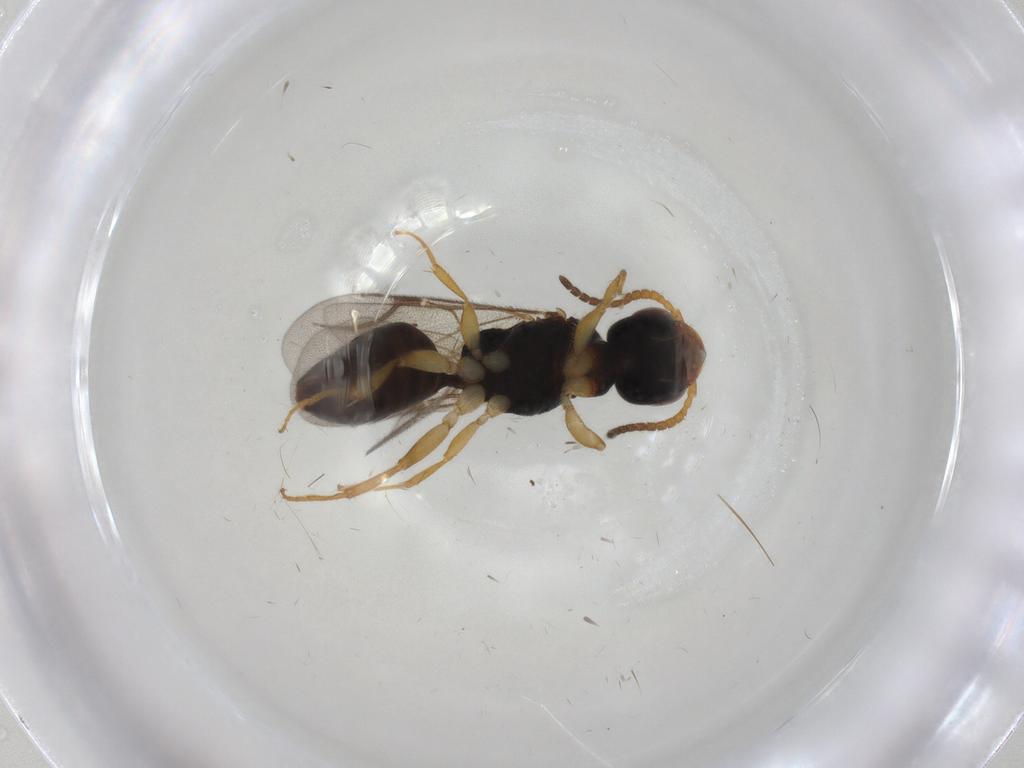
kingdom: Animalia
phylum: Arthropoda
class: Insecta
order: Hymenoptera
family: Bethylidae
